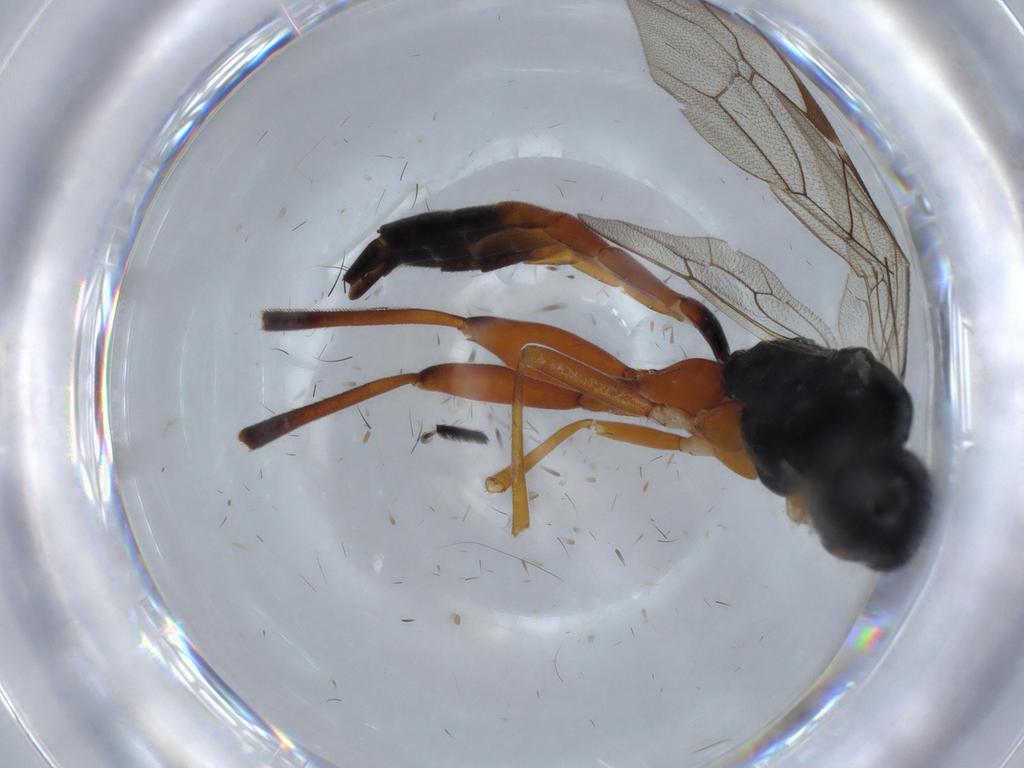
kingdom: Animalia
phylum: Arthropoda
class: Insecta
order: Hymenoptera
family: Ichneumonidae
